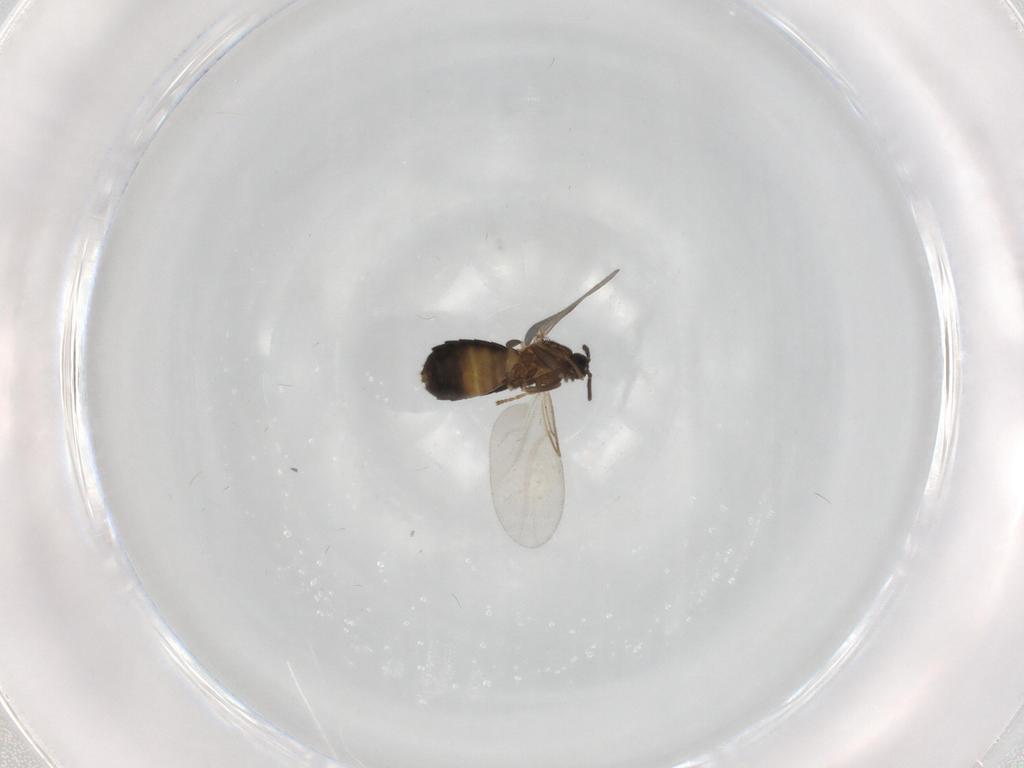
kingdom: Animalia
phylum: Arthropoda
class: Insecta
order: Diptera
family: Scatopsidae
